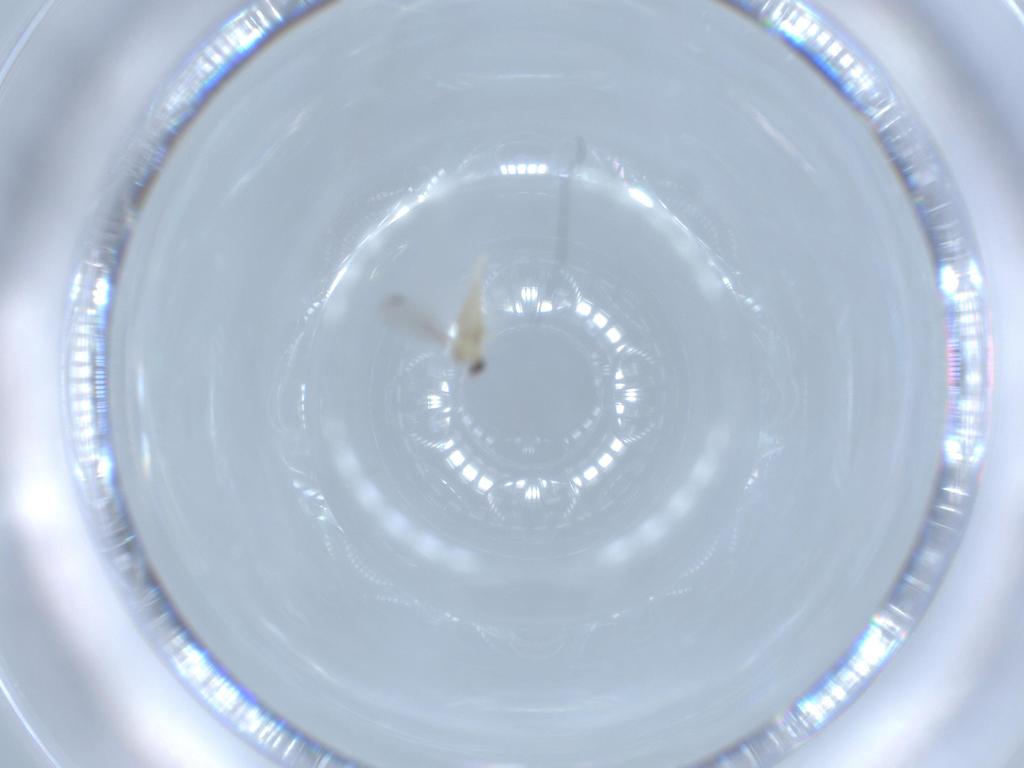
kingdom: Animalia
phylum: Arthropoda
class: Insecta
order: Diptera
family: Cecidomyiidae
